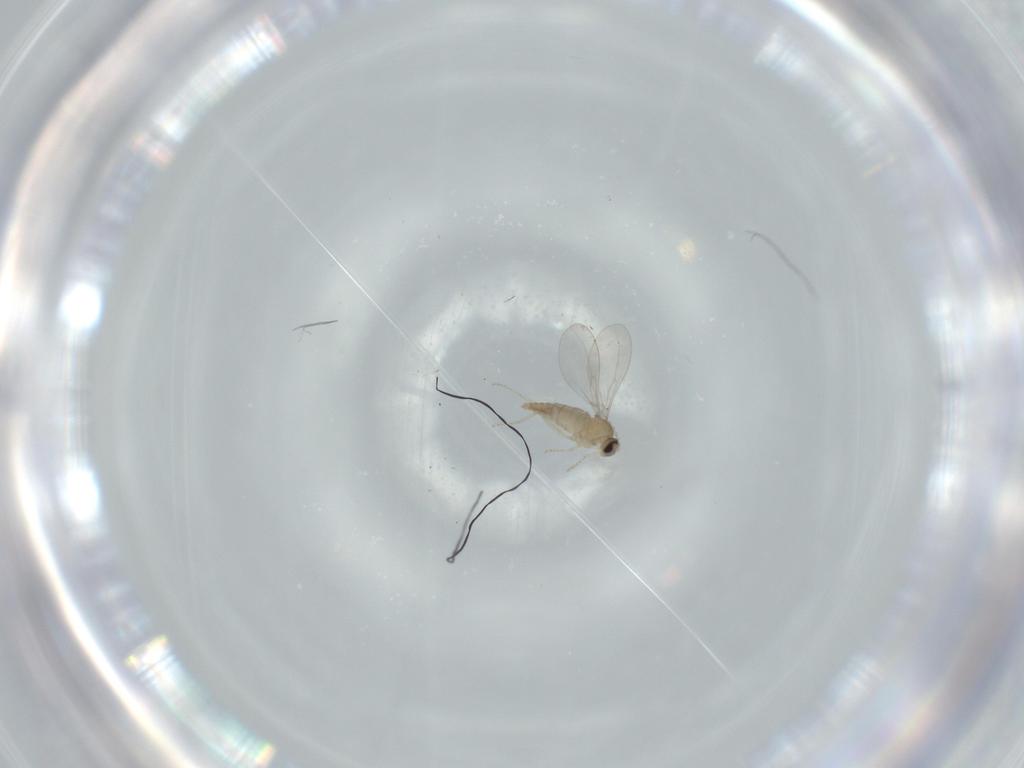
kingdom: Animalia
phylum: Arthropoda
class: Insecta
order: Diptera
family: Cecidomyiidae
